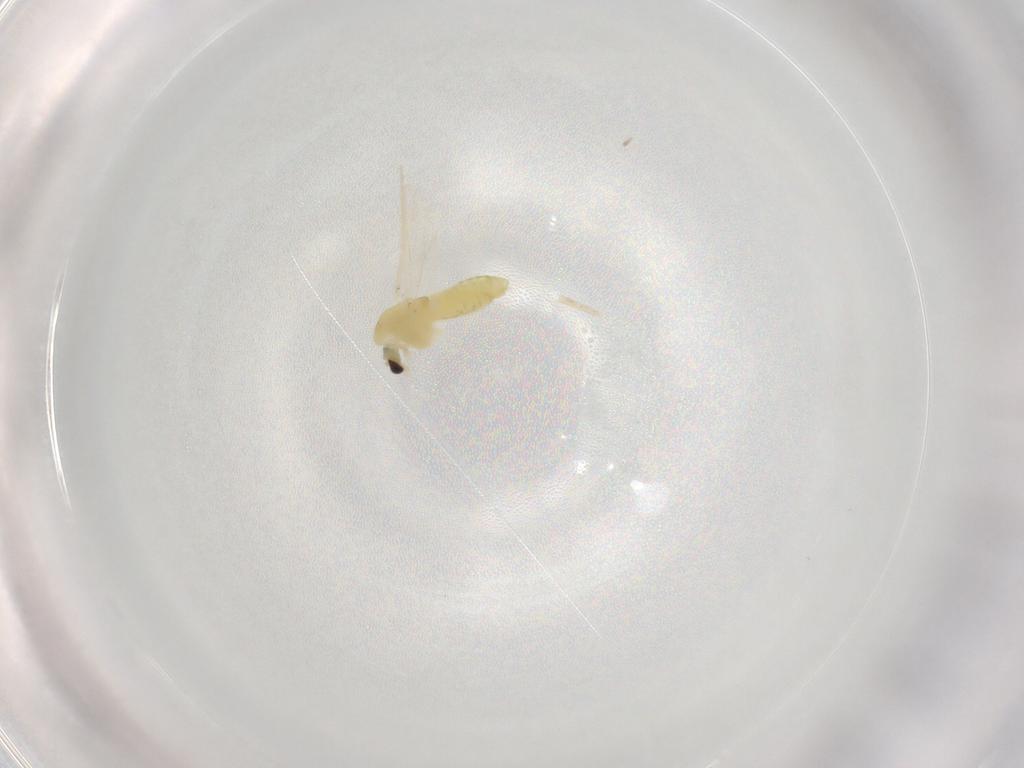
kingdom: Animalia
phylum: Arthropoda
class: Insecta
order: Diptera
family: Chironomidae
